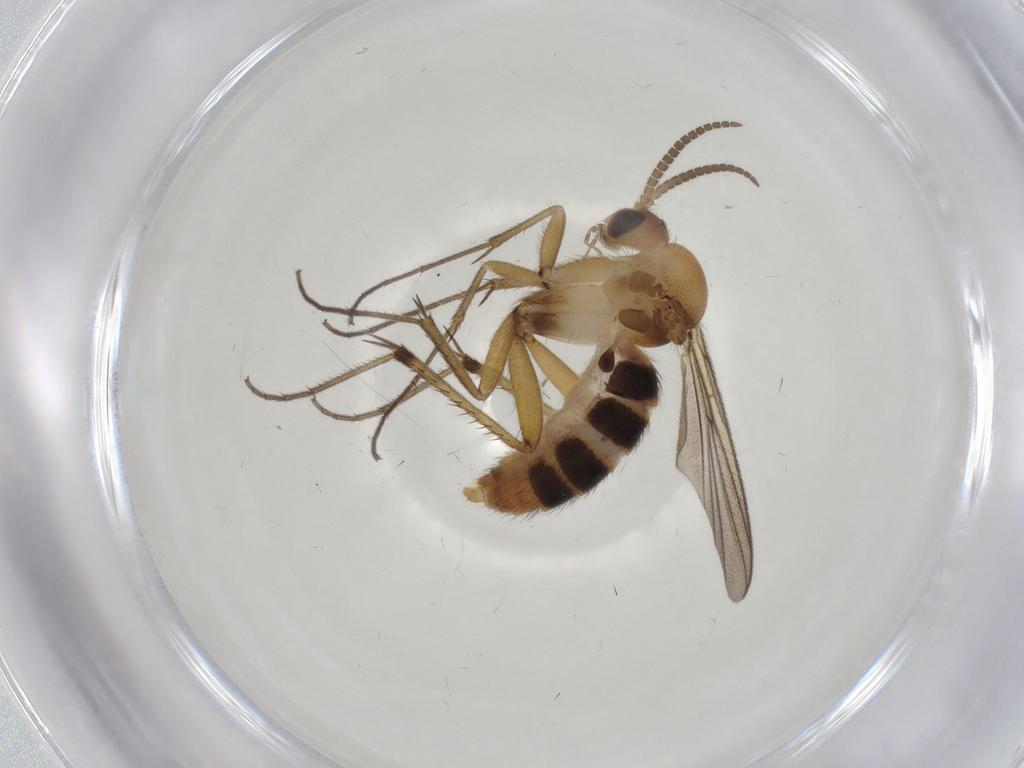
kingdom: Animalia
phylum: Arthropoda
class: Insecta
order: Diptera
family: Mycetophilidae
